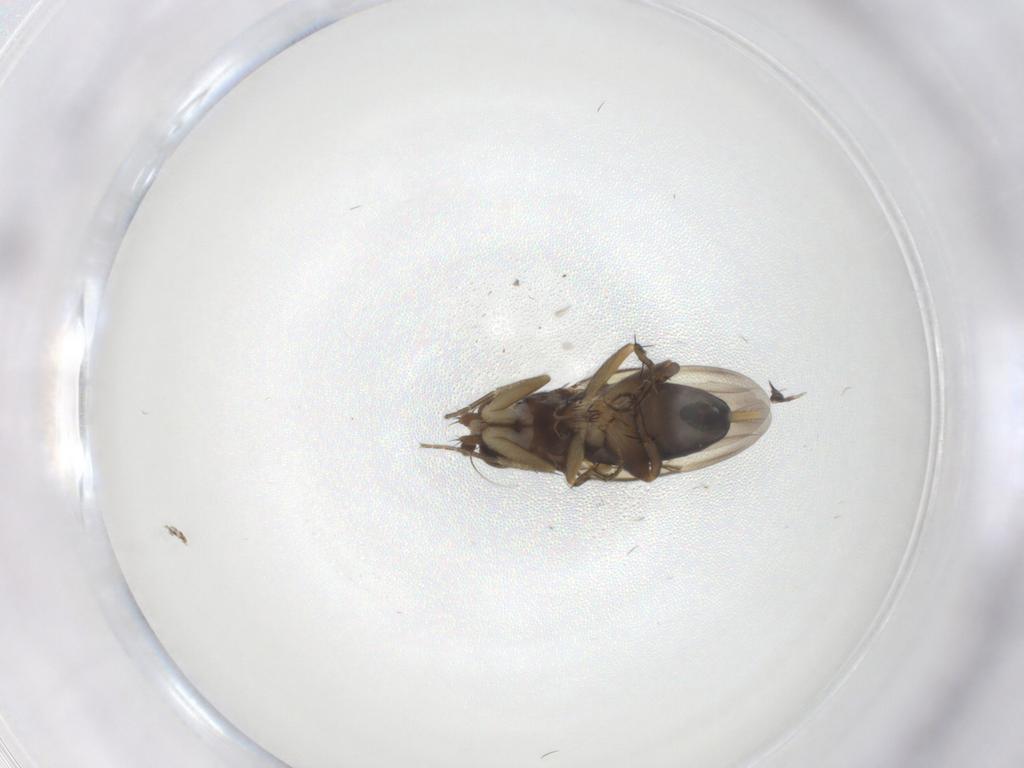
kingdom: Animalia
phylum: Arthropoda
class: Insecta
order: Diptera
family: Phoridae
